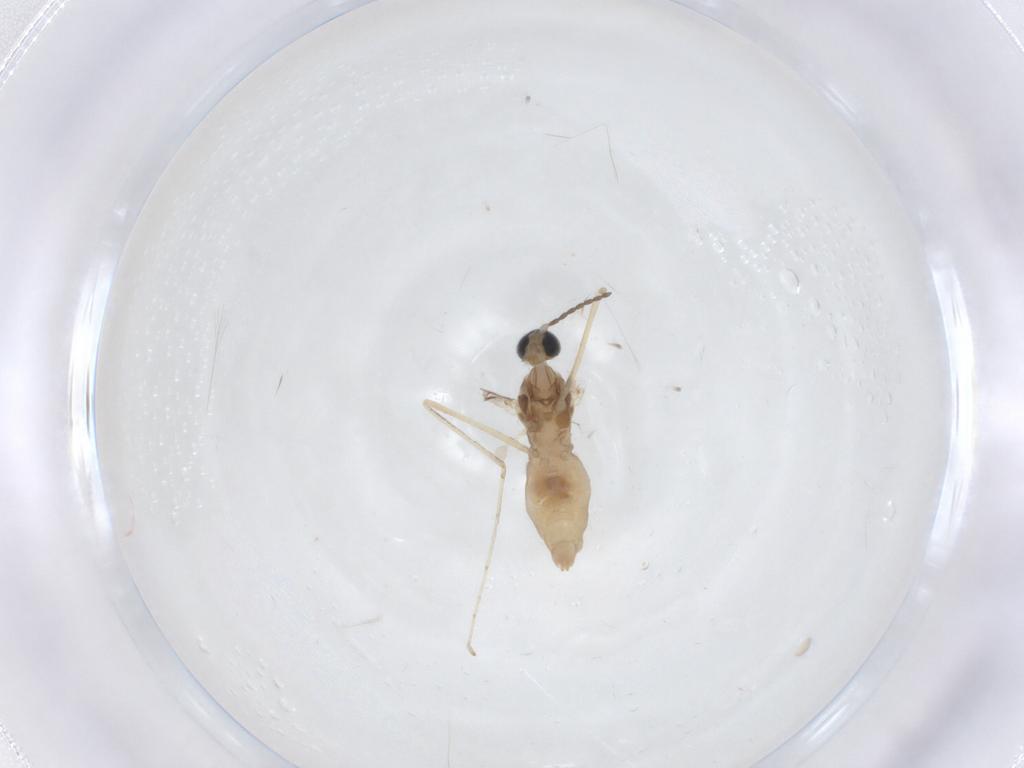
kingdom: Animalia
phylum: Arthropoda
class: Insecta
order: Diptera
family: Cecidomyiidae
